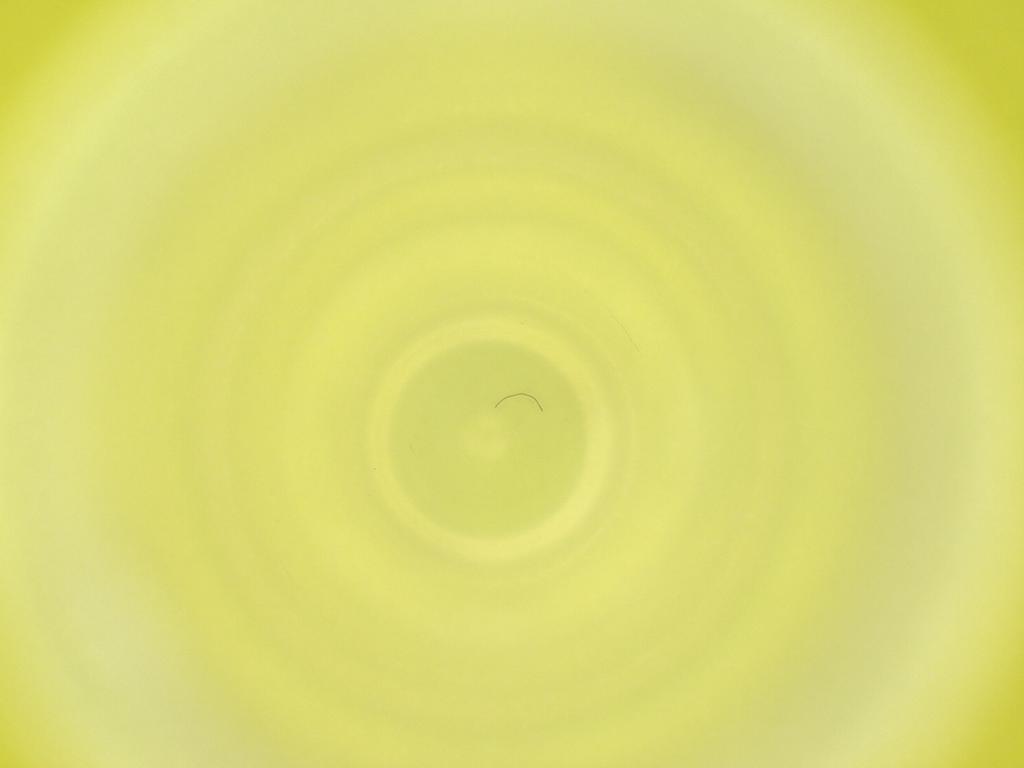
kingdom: Animalia
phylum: Arthropoda
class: Insecta
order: Diptera
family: Cecidomyiidae
